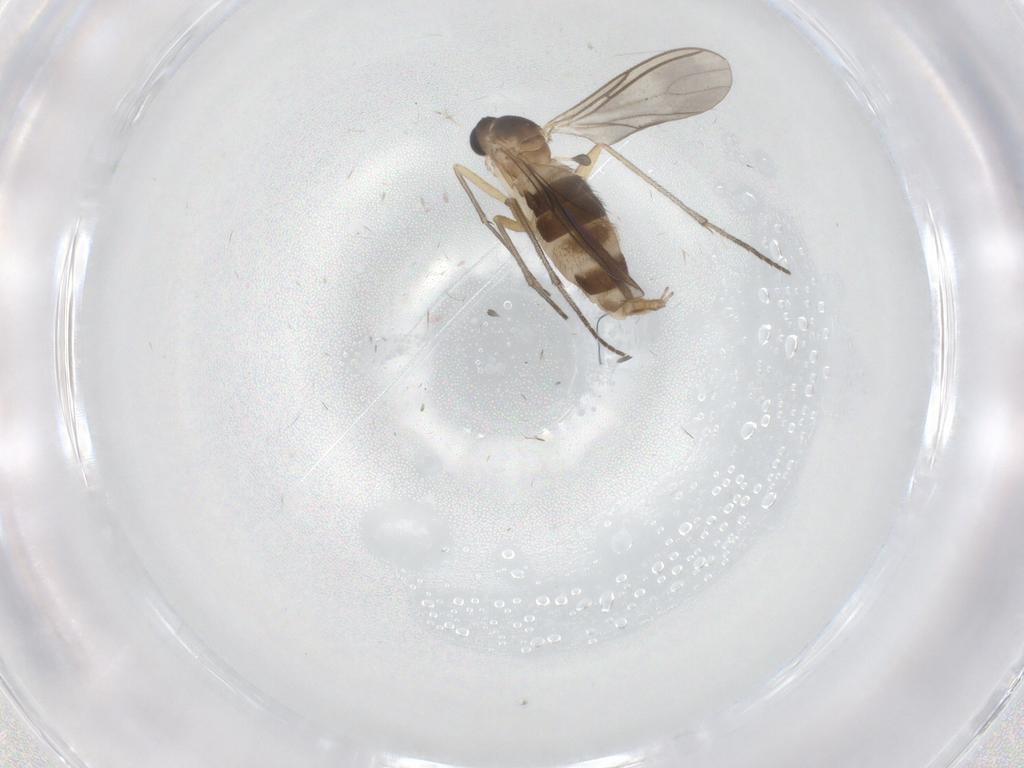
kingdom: Animalia
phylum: Arthropoda
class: Insecta
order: Diptera
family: Sciaridae
